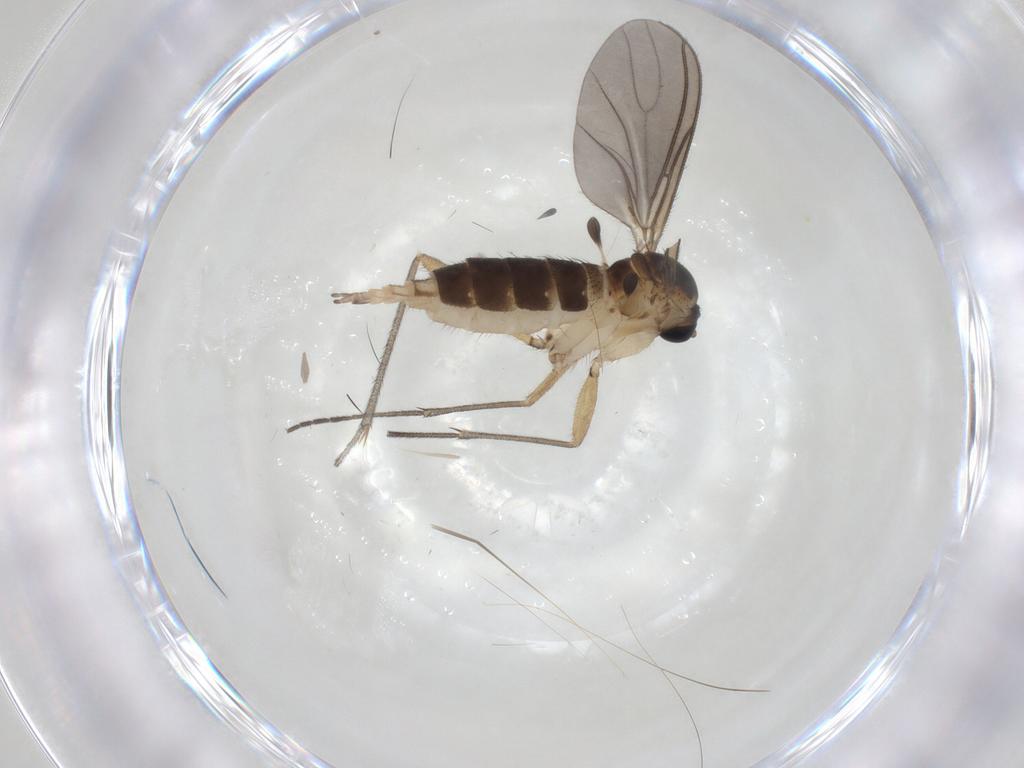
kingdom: Animalia
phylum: Arthropoda
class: Insecta
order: Diptera
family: Sciaridae
